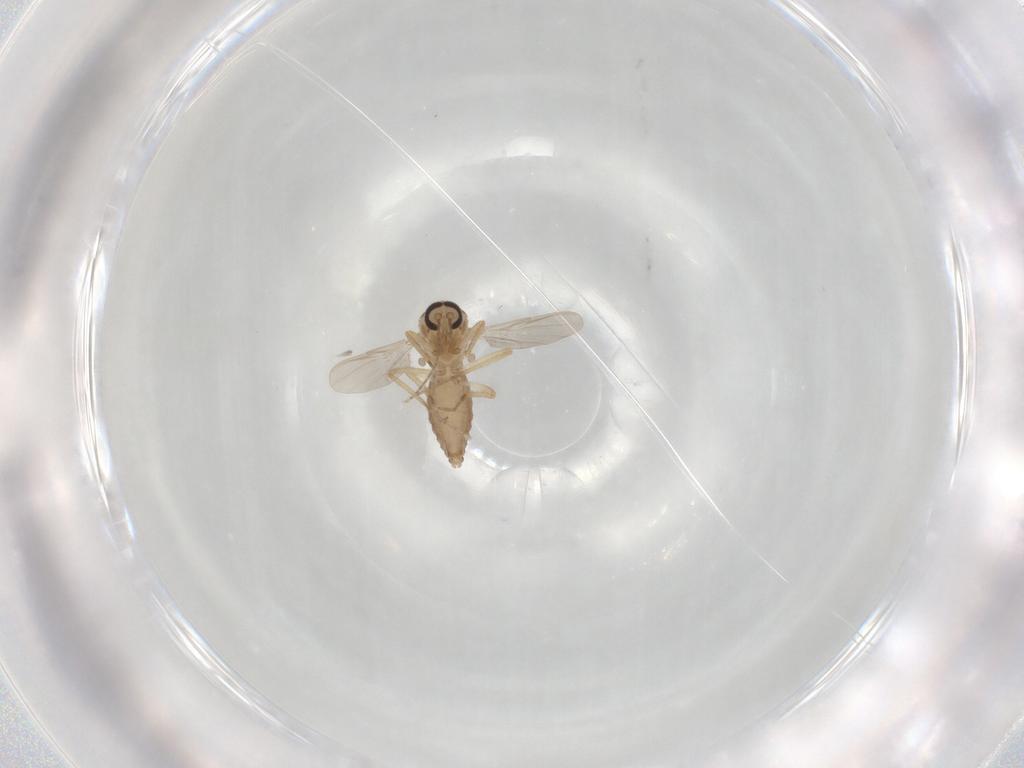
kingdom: Animalia
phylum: Arthropoda
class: Insecta
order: Diptera
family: Ceratopogonidae
